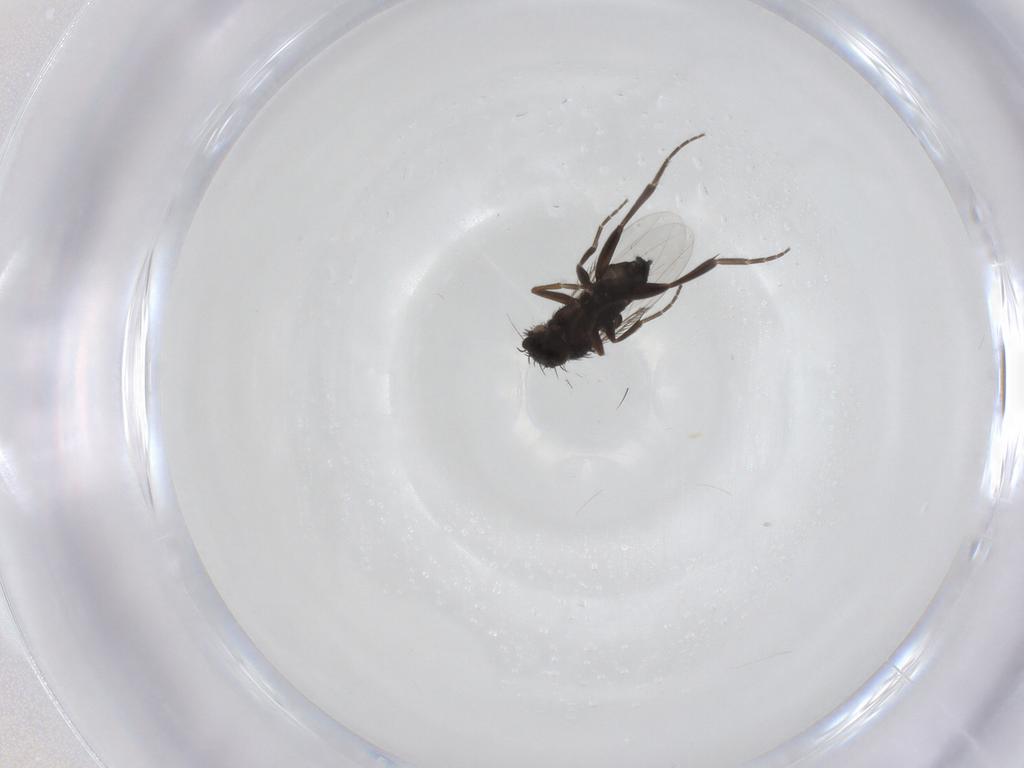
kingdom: Animalia
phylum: Arthropoda
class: Insecta
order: Diptera
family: Phoridae
